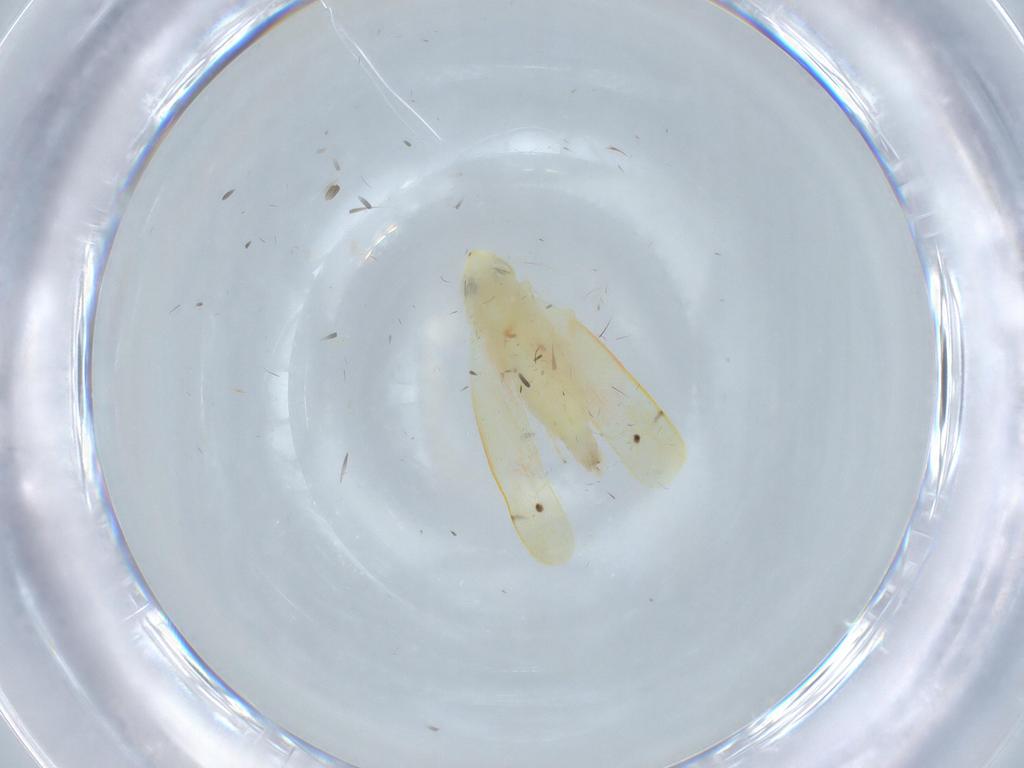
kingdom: Animalia
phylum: Arthropoda
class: Insecta
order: Hemiptera
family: Cicadellidae
